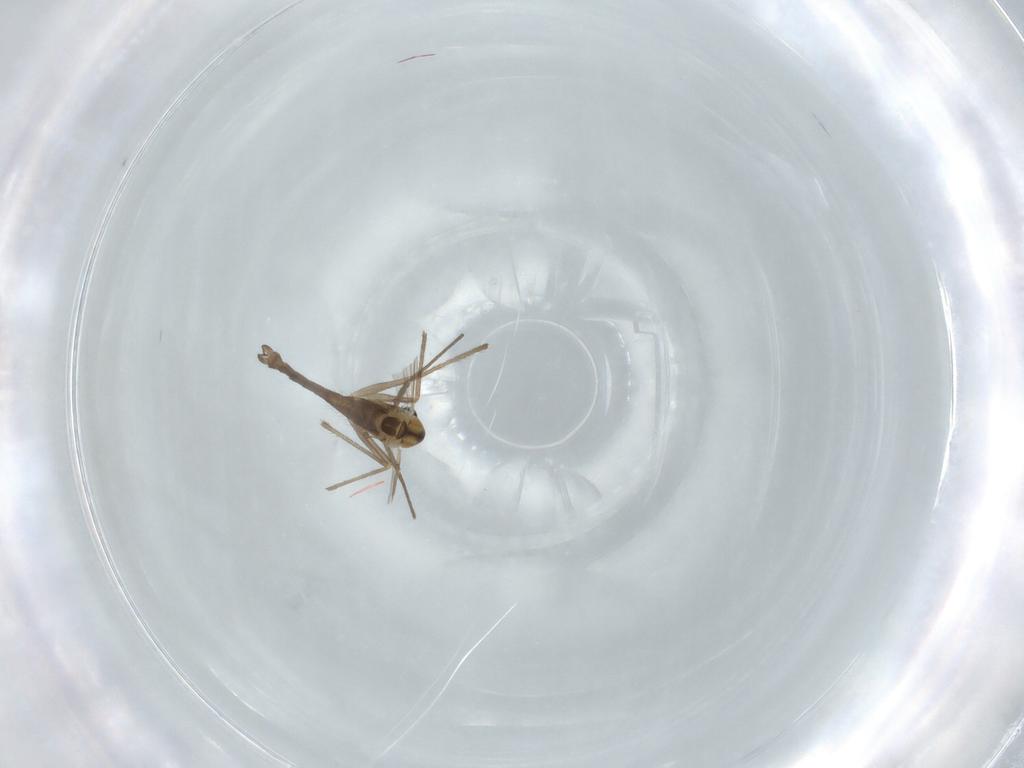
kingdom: Animalia
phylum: Arthropoda
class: Insecta
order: Diptera
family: Chironomidae
